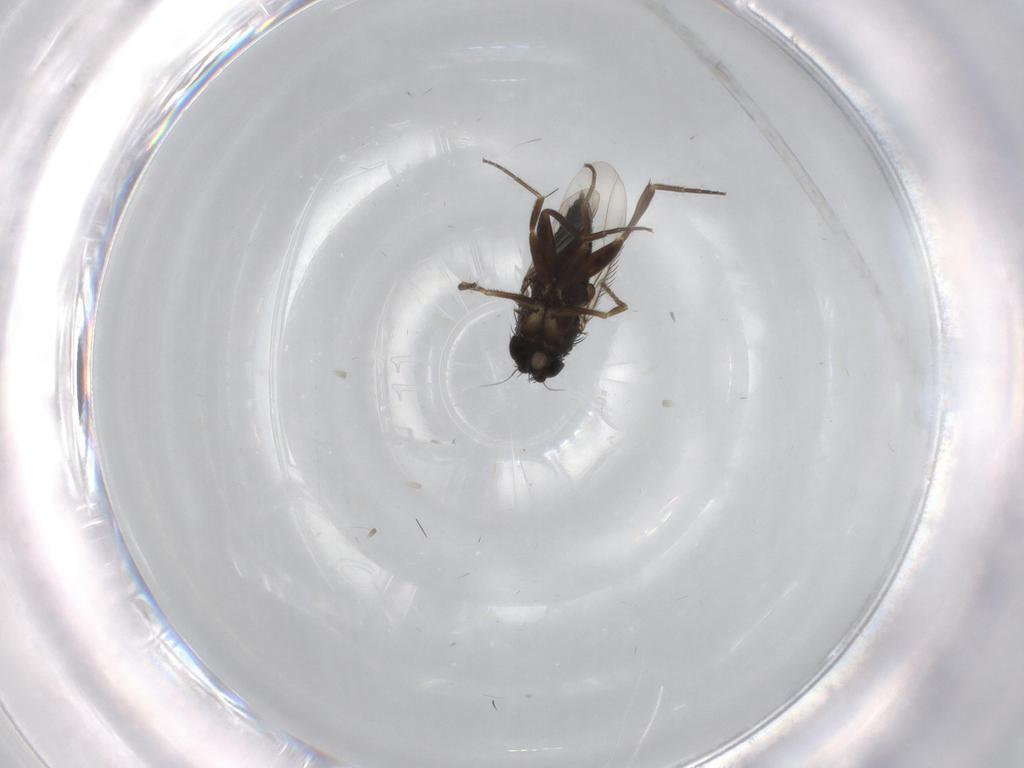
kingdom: Animalia
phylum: Arthropoda
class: Insecta
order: Diptera
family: Phoridae
